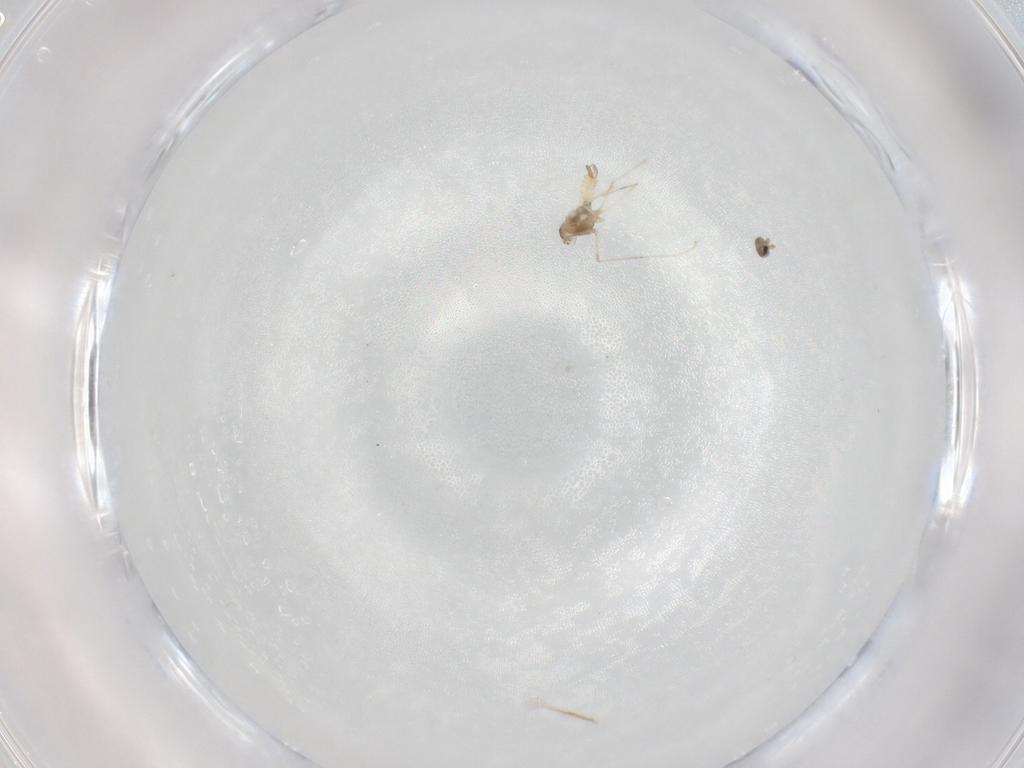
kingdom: Animalia
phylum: Arthropoda
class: Insecta
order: Diptera
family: Cecidomyiidae
